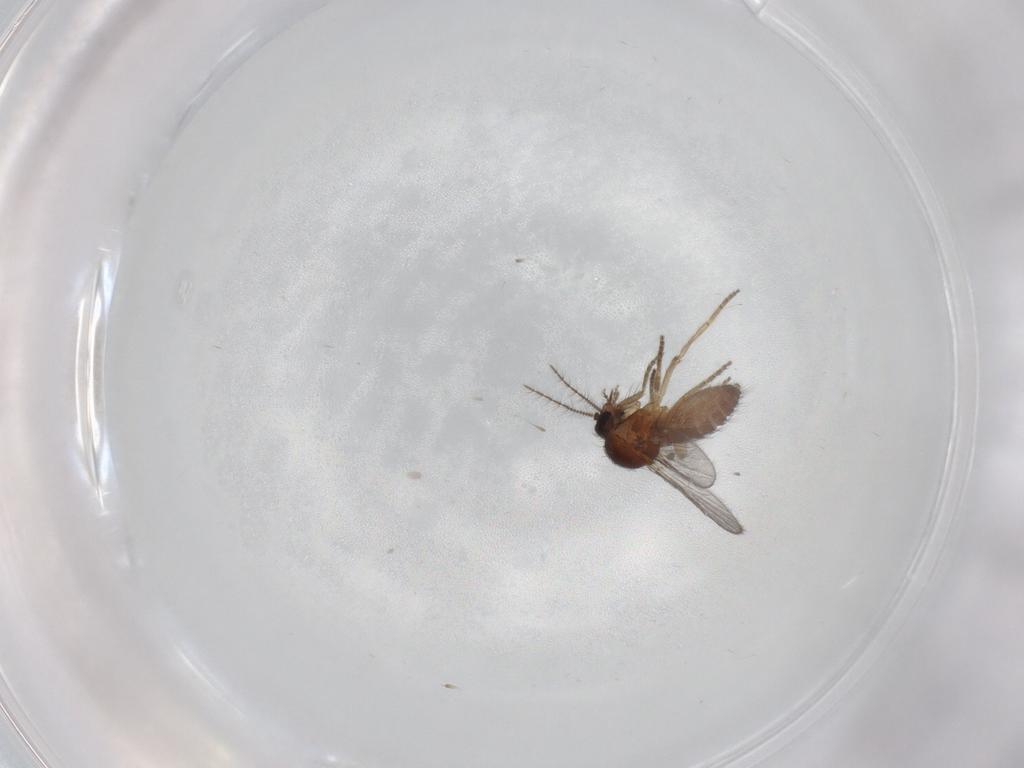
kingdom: Animalia
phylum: Arthropoda
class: Insecta
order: Diptera
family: Ceratopogonidae
